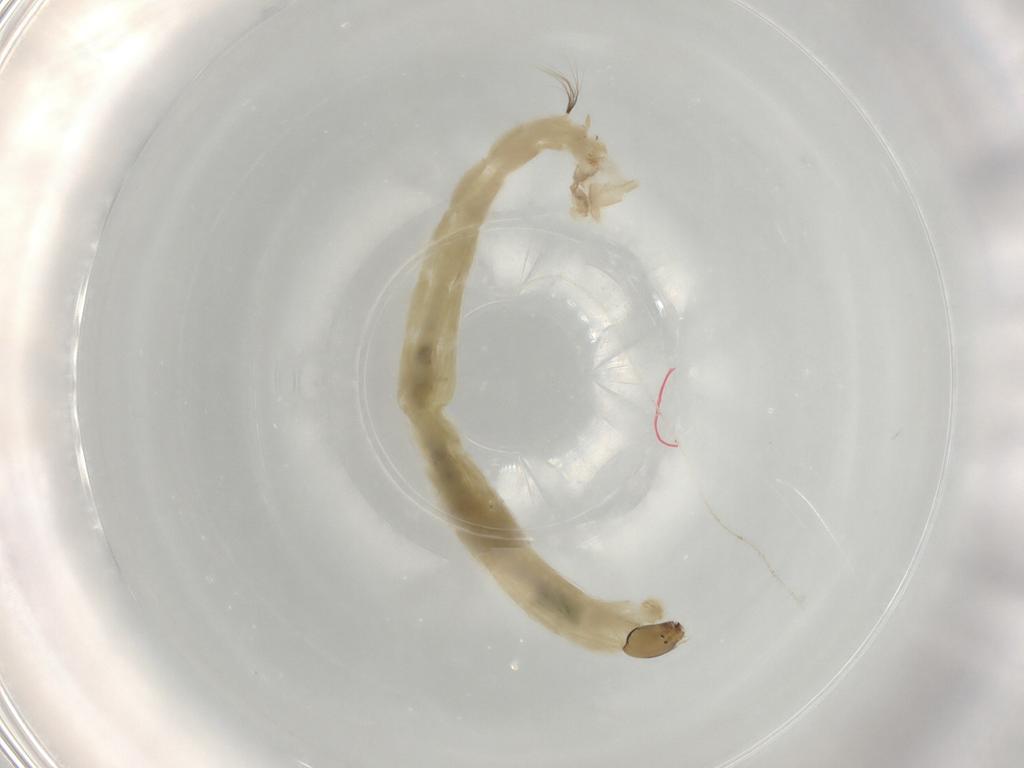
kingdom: Animalia
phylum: Arthropoda
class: Insecta
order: Diptera
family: Chironomidae
